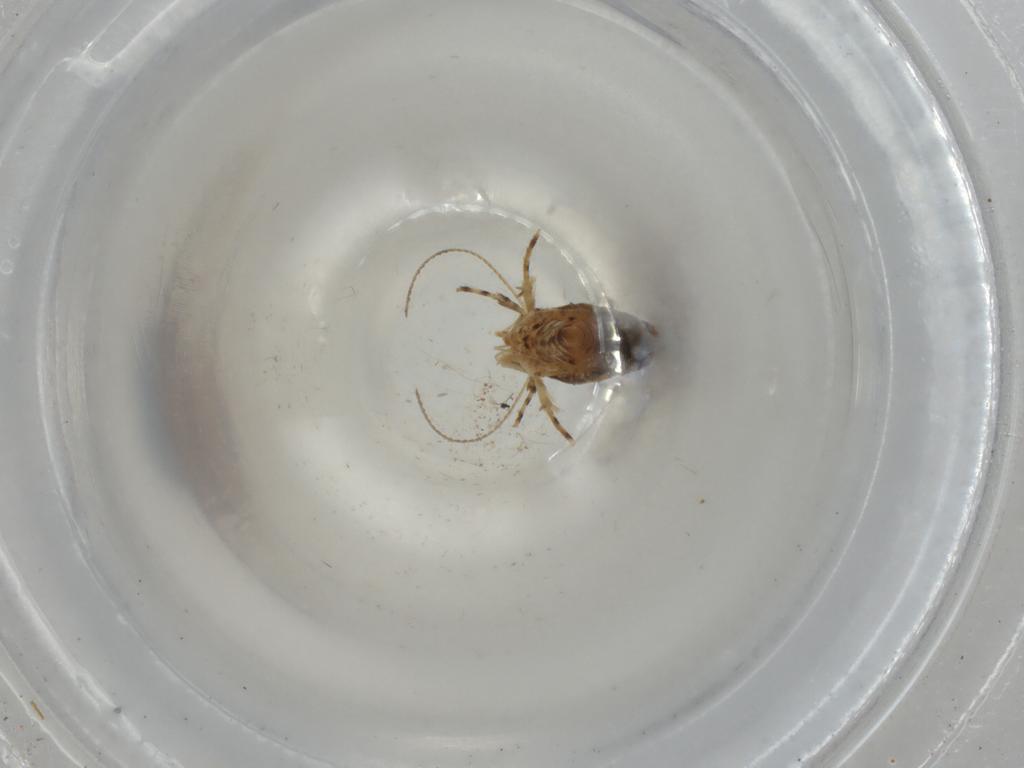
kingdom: Animalia
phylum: Arthropoda
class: Insecta
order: Lepidoptera
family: Cosmopterigidae
